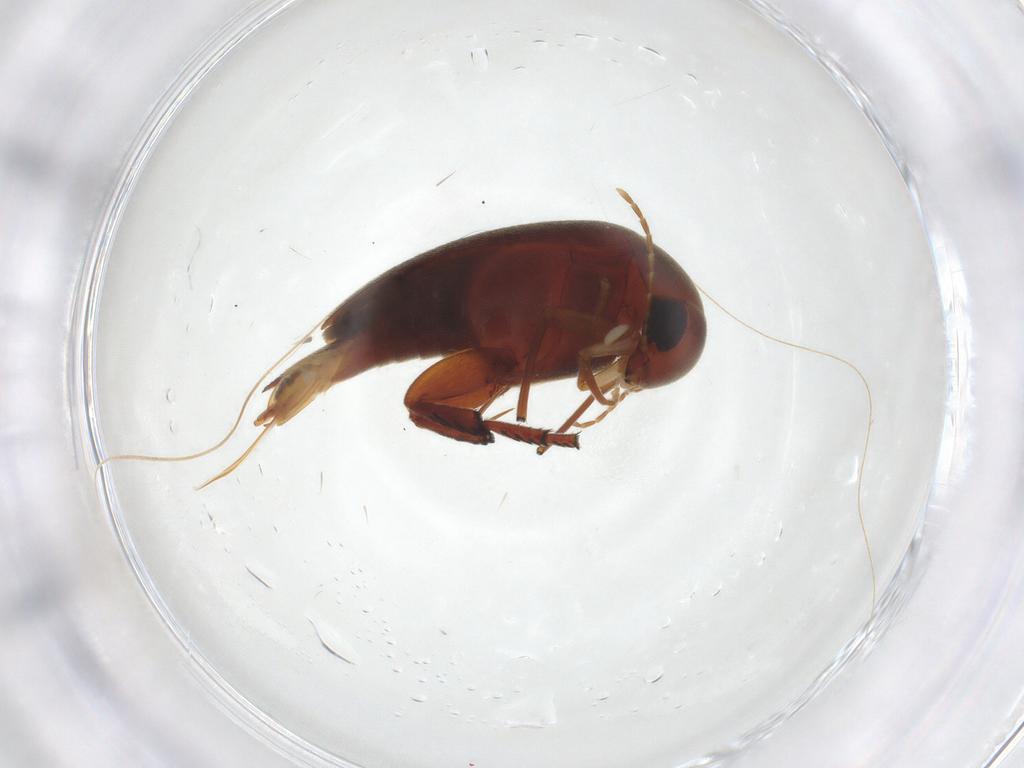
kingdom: Animalia
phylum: Arthropoda
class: Insecta
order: Coleoptera
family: Mordellidae
